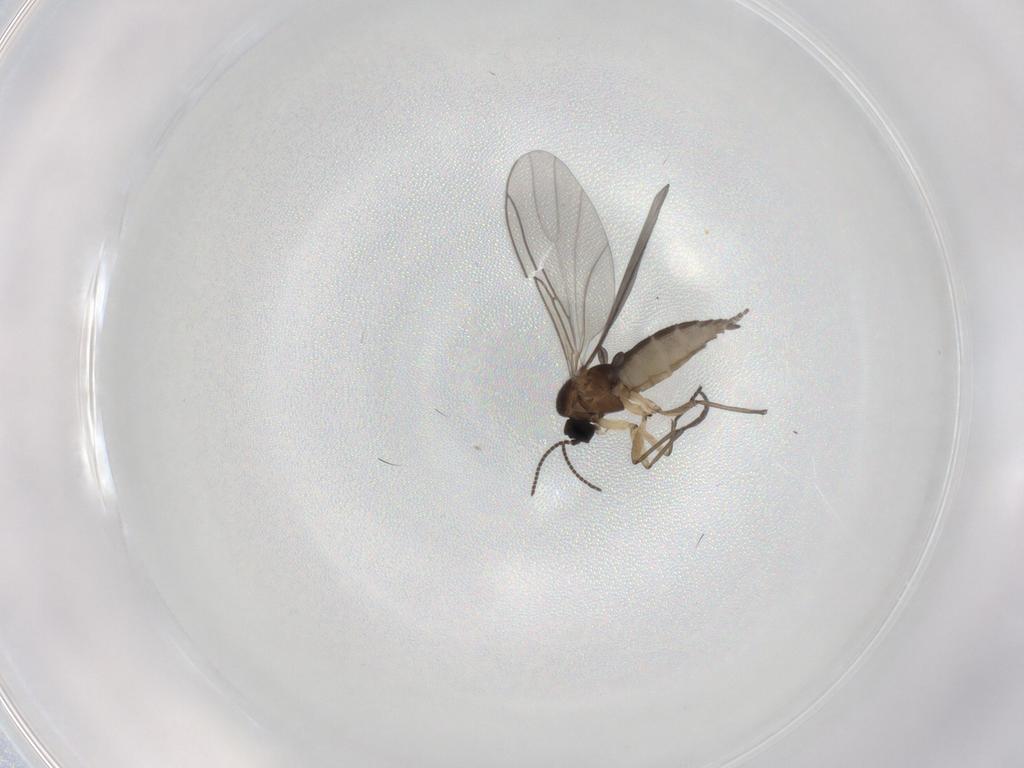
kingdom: Animalia
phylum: Arthropoda
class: Insecta
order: Diptera
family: Sciaridae
